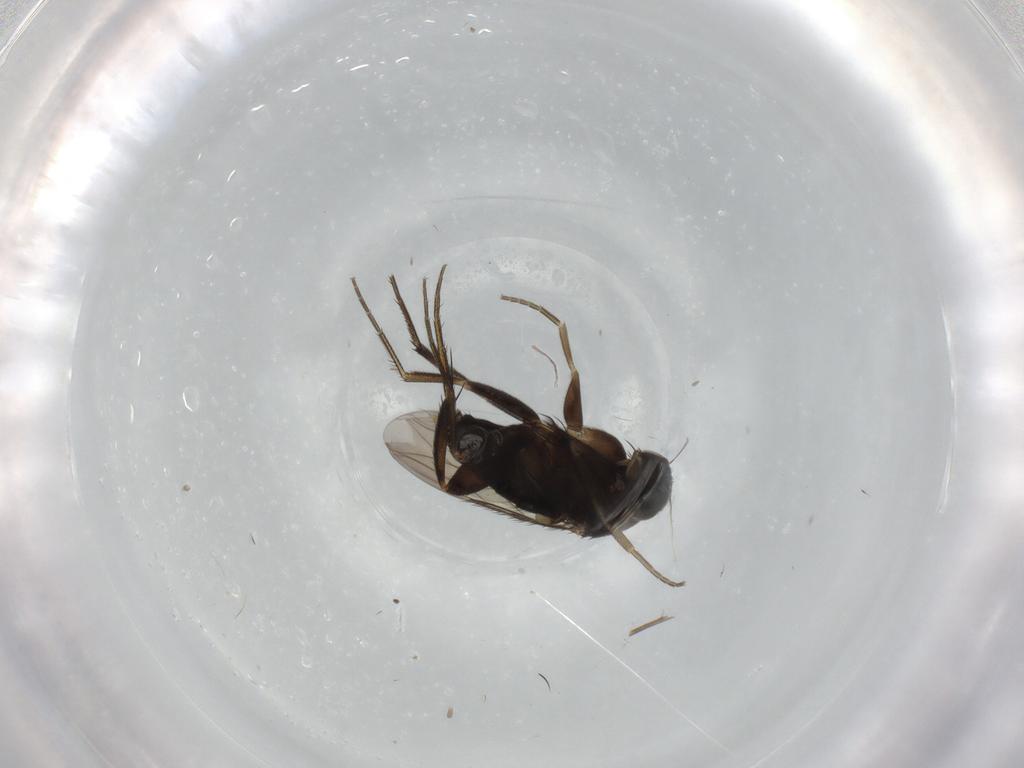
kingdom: Animalia
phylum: Arthropoda
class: Insecta
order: Diptera
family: Phoridae
